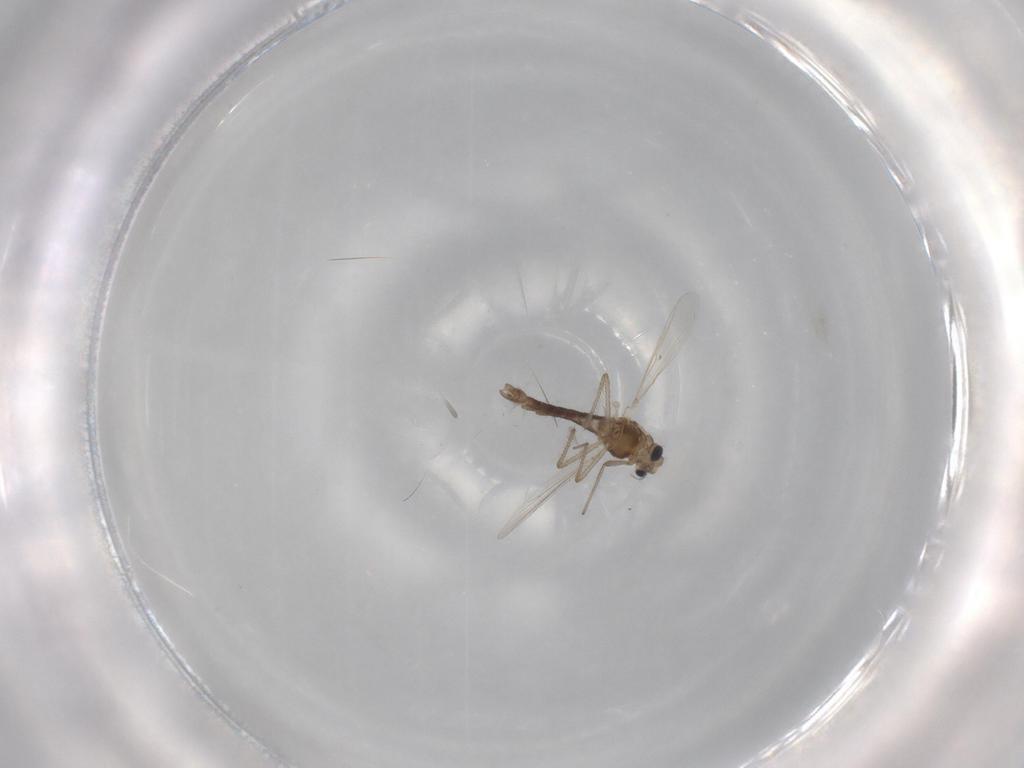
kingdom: Animalia
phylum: Arthropoda
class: Insecta
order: Diptera
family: Chironomidae
